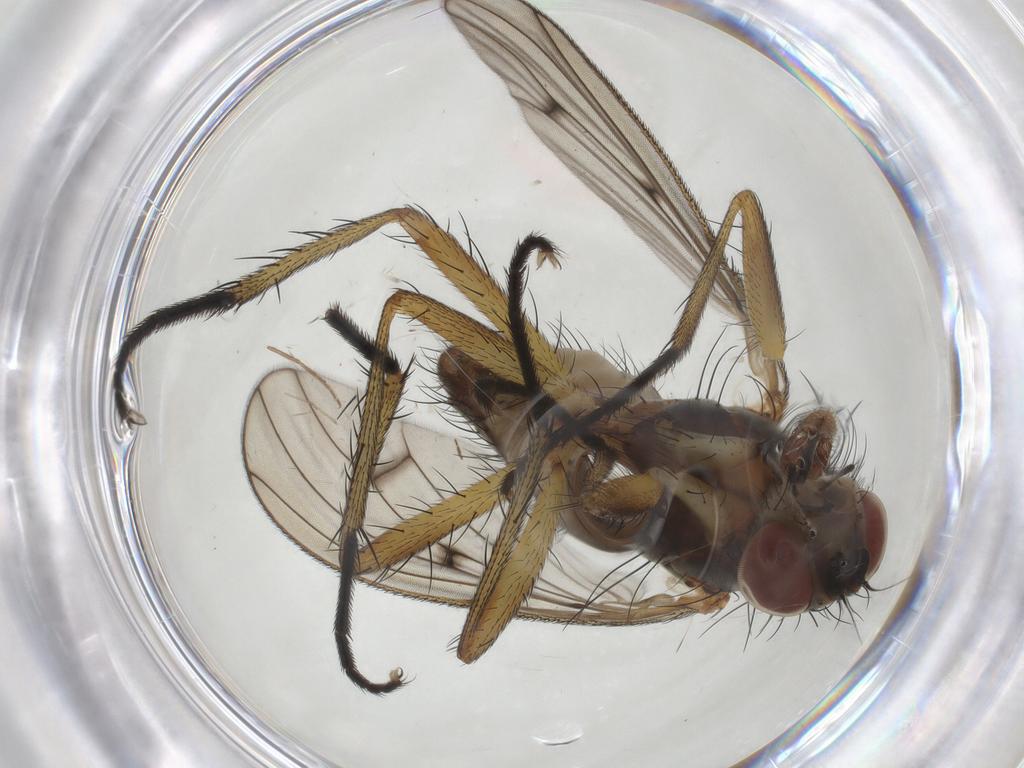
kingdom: Animalia
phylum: Arthropoda
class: Insecta
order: Diptera
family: Anthomyiidae
